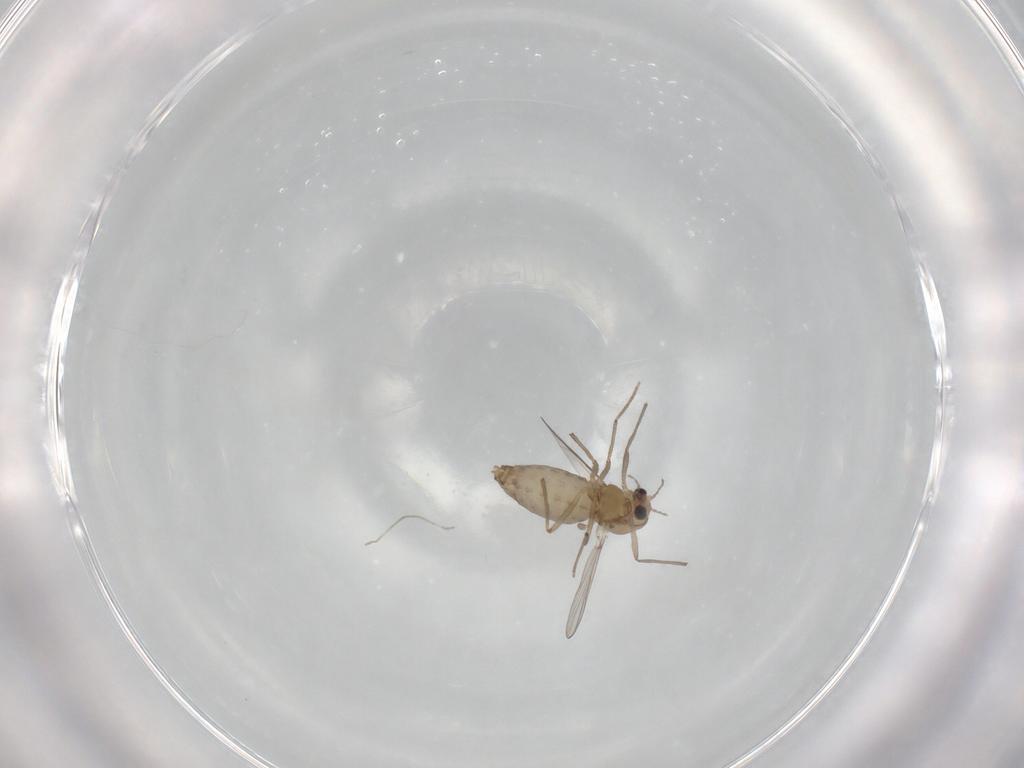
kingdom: Animalia
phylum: Arthropoda
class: Insecta
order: Diptera
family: Chironomidae
